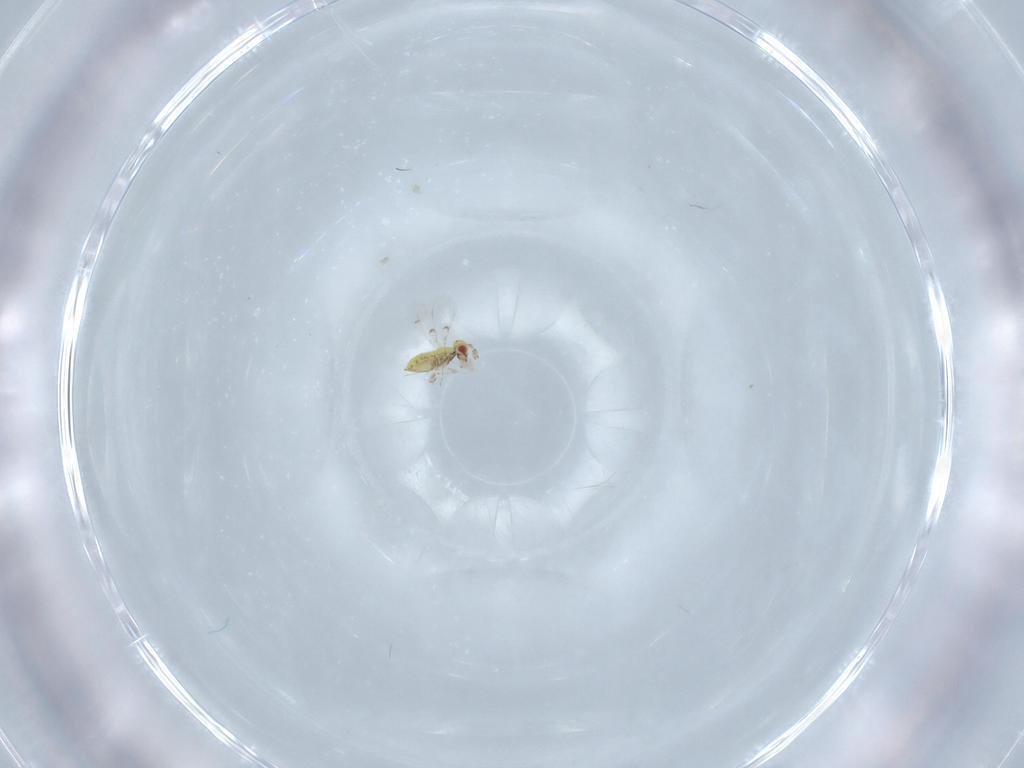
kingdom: Animalia
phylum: Arthropoda
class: Insecta
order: Hymenoptera
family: Trichogrammatidae
